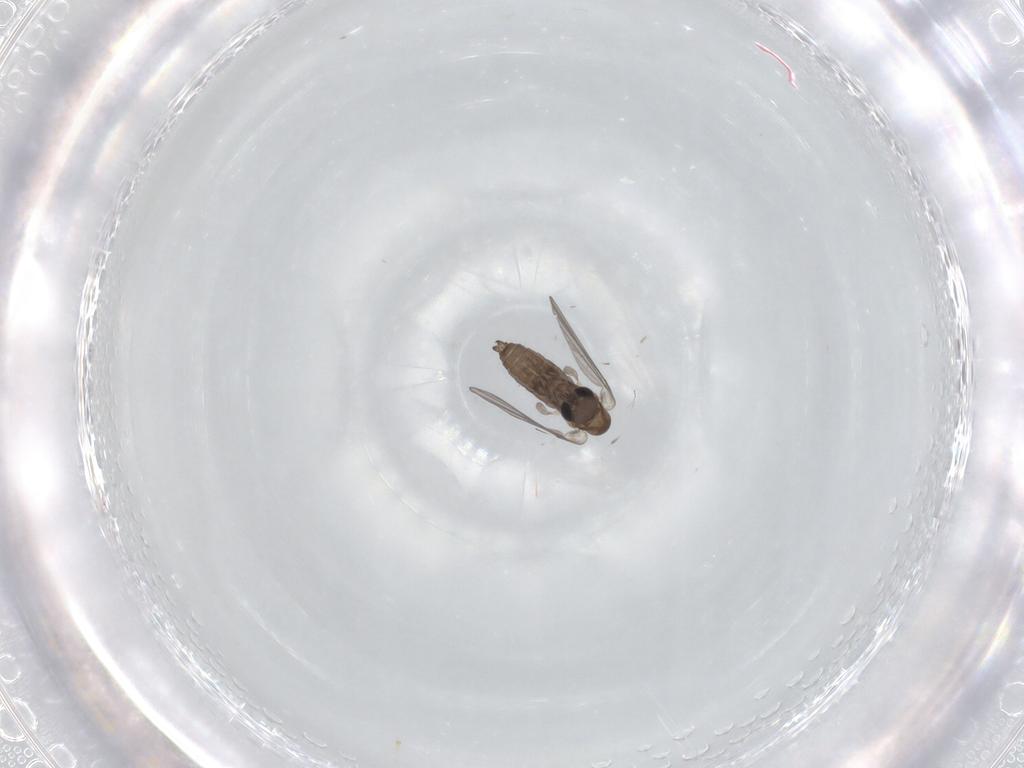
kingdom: Animalia
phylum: Arthropoda
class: Insecta
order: Diptera
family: Cecidomyiidae
